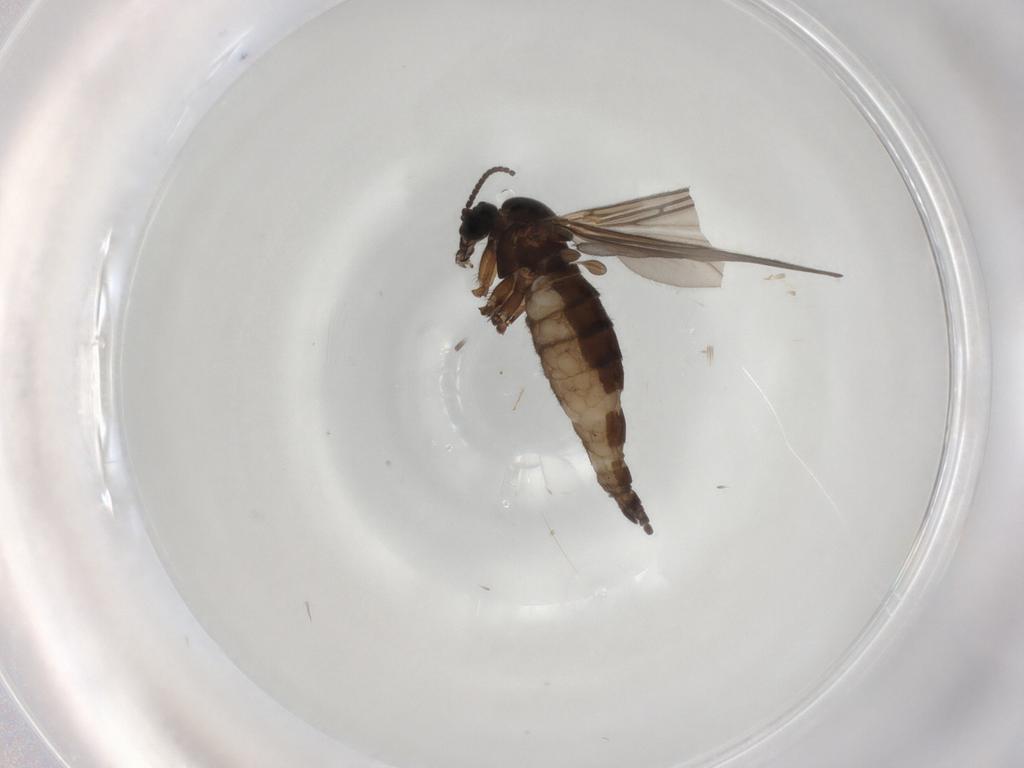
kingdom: Animalia
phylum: Arthropoda
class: Insecta
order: Diptera
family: Sciaridae
